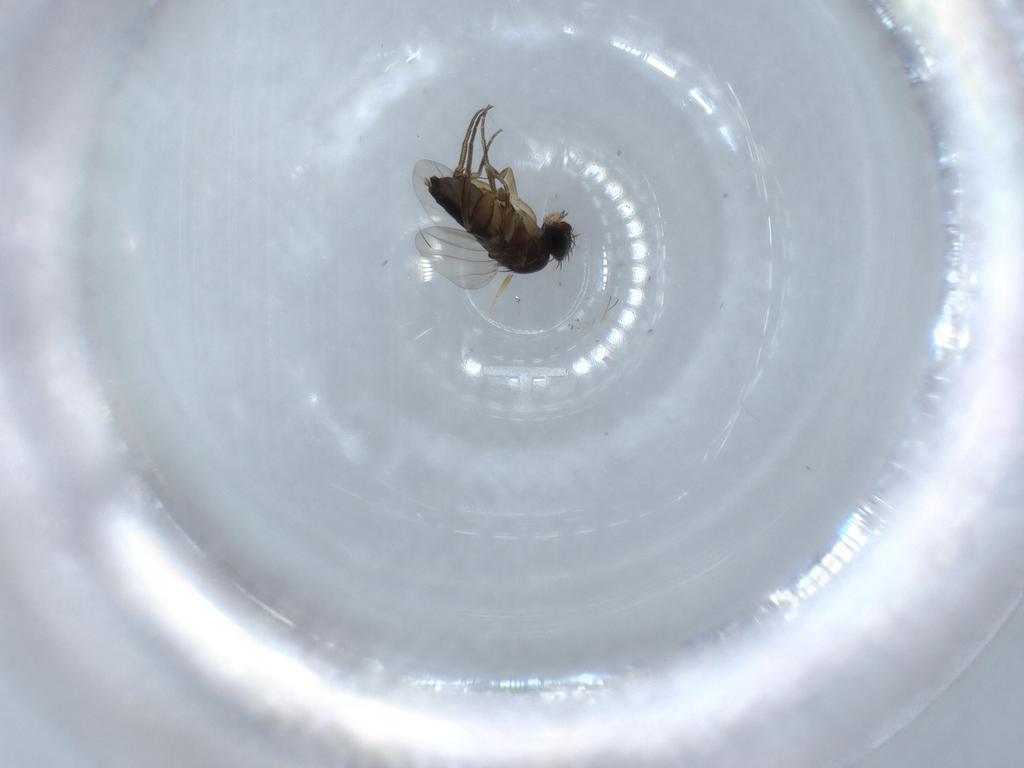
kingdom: Animalia
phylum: Arthropoda
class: Insecta
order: Diptera
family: Phoridae
